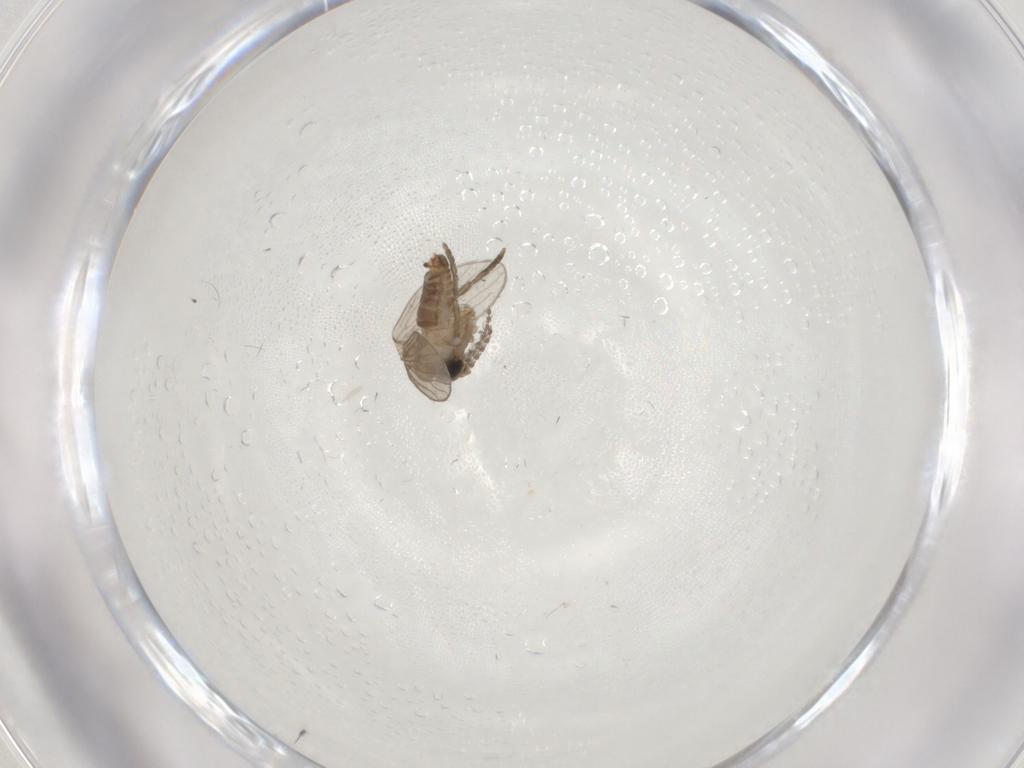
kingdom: Animalia
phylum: Arthropoda
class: Insecta
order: Diptera
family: Psychodidae
